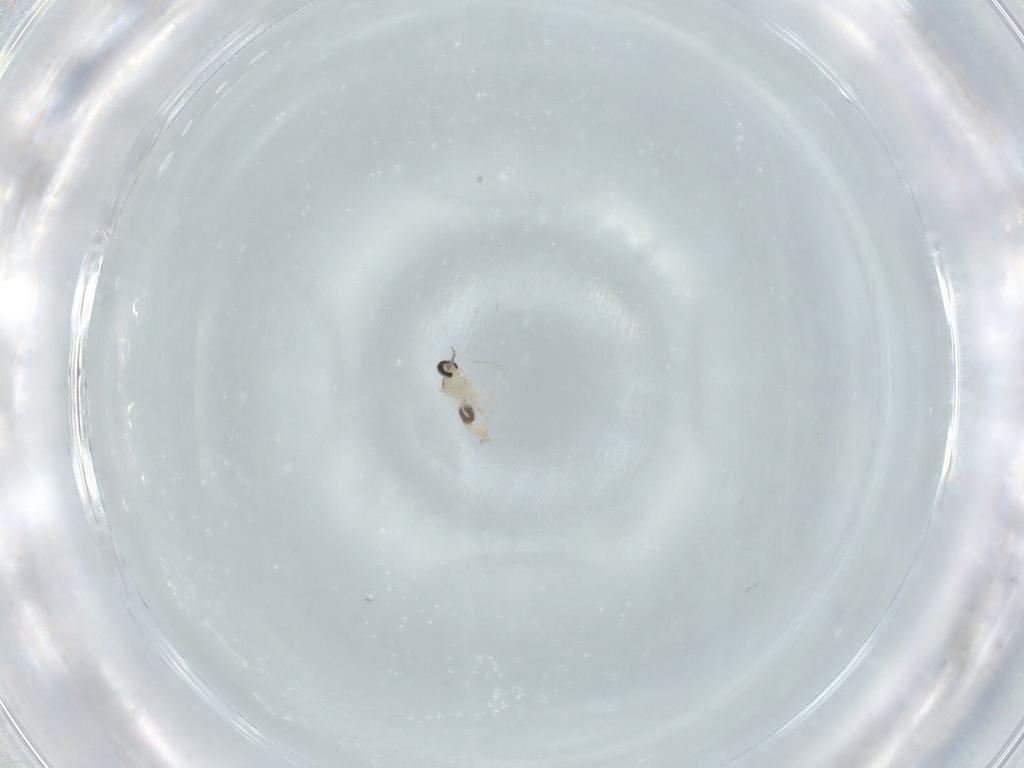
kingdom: Animalia
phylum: Arthropoda
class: Insecta
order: Diptera
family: Cecidomyiidae
